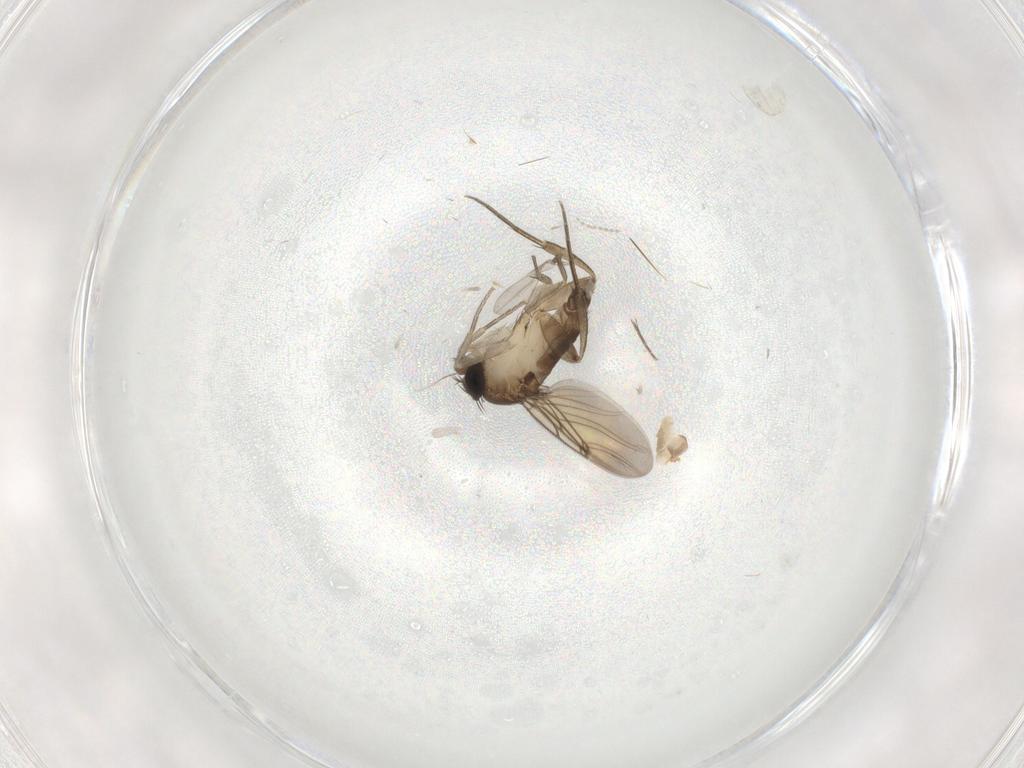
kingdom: Animalia
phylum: Arthropoda
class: Insecta
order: Diptera
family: Cecidomyiidae
